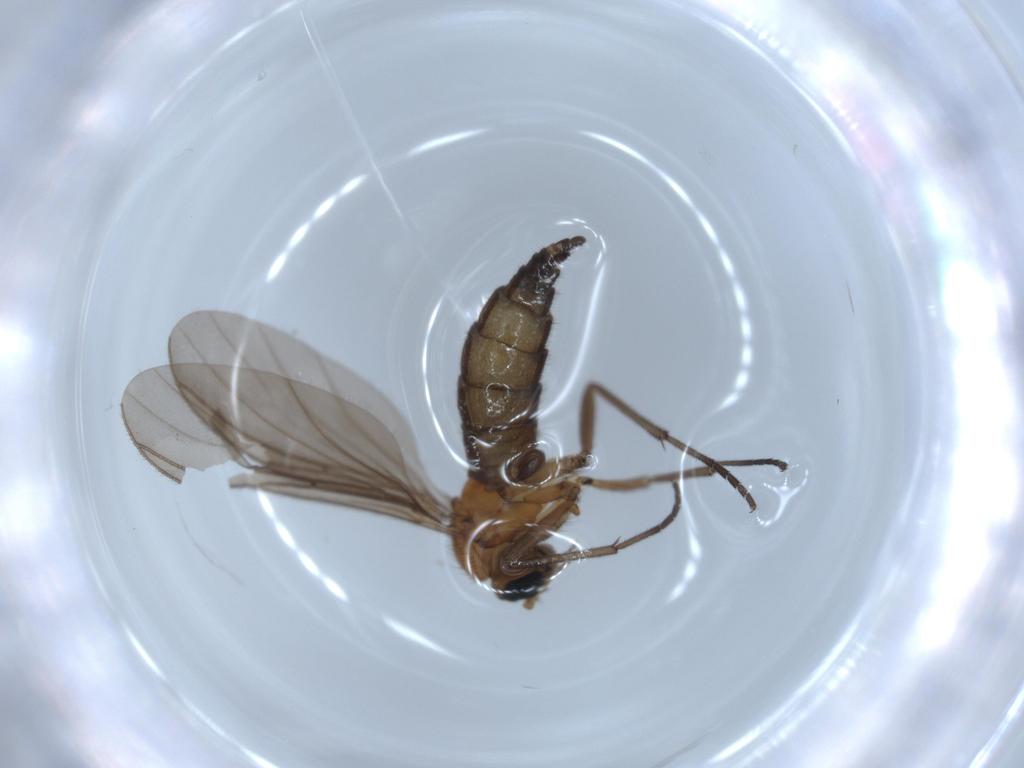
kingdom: Animalia
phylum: Arthropoda
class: Insecta
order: Diptera
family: Sciaridae
